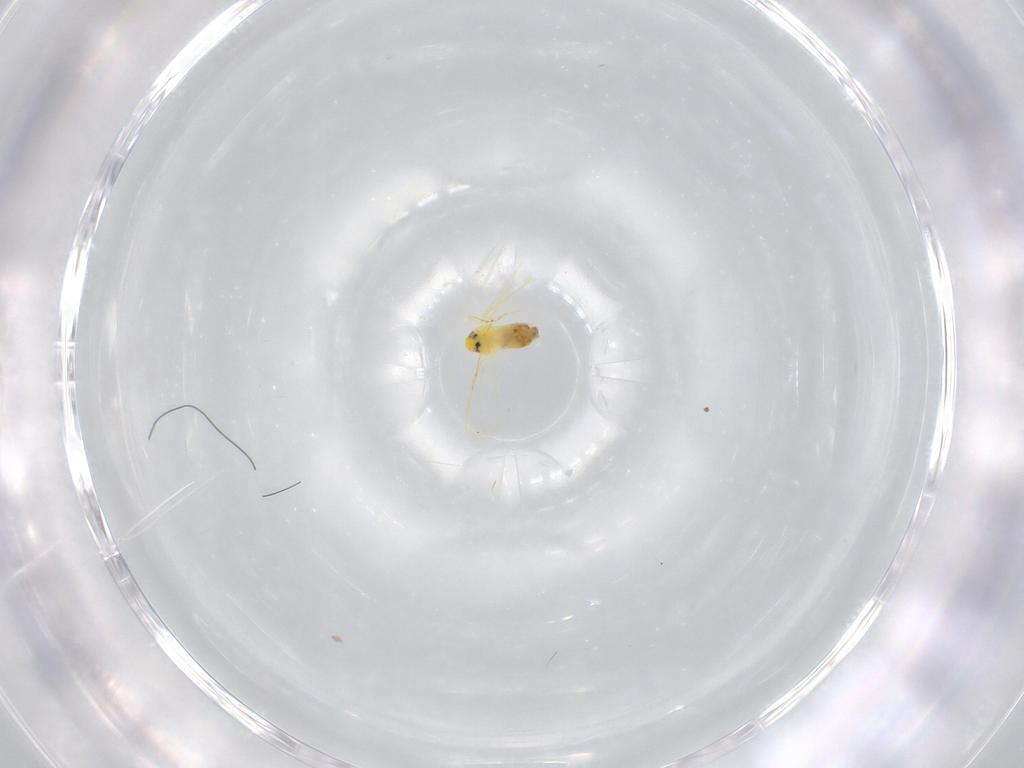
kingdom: Animalia
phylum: Arthropoda
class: Insecta
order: Hemiptera
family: Aleyrodidae
